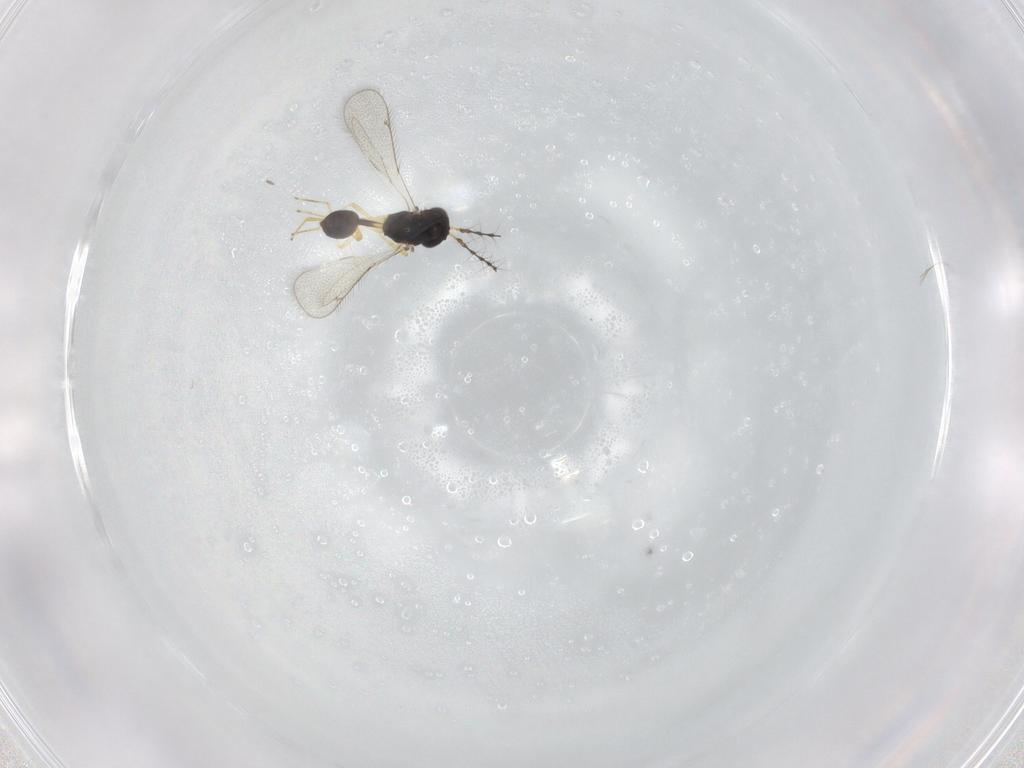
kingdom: Animalia
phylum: Arthropoda
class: Insecta
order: Hymenoptera
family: Diparidae
